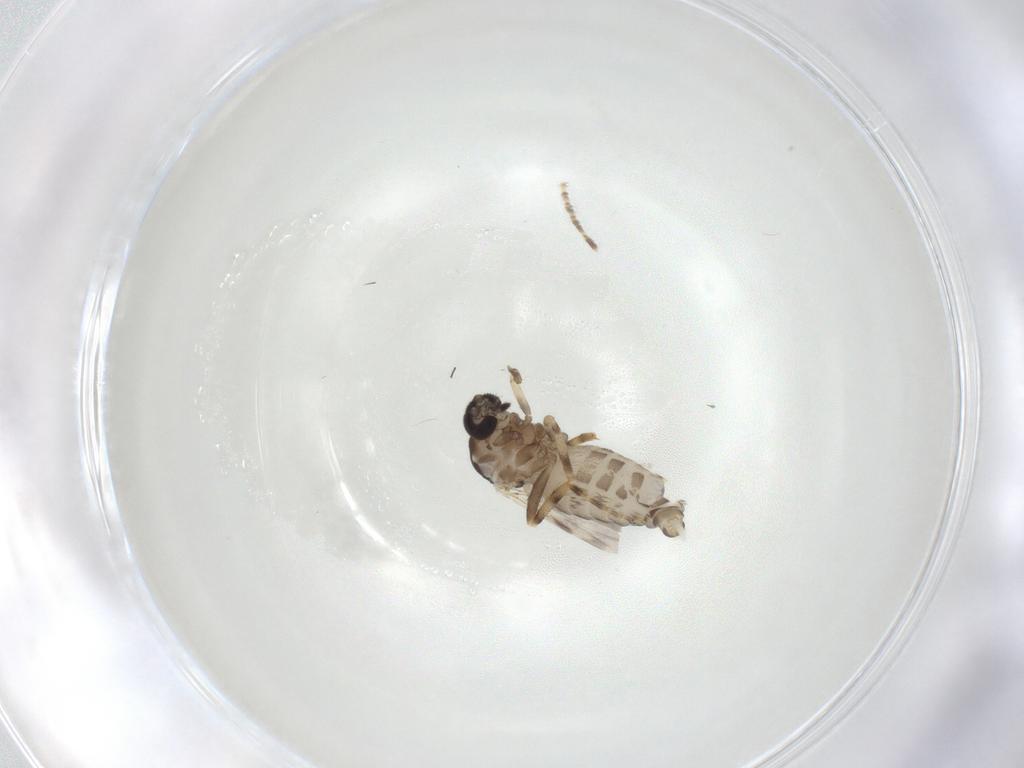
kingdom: Animalia
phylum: Arthropoda
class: Insecta
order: Diptera
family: Ceratopogonidae
